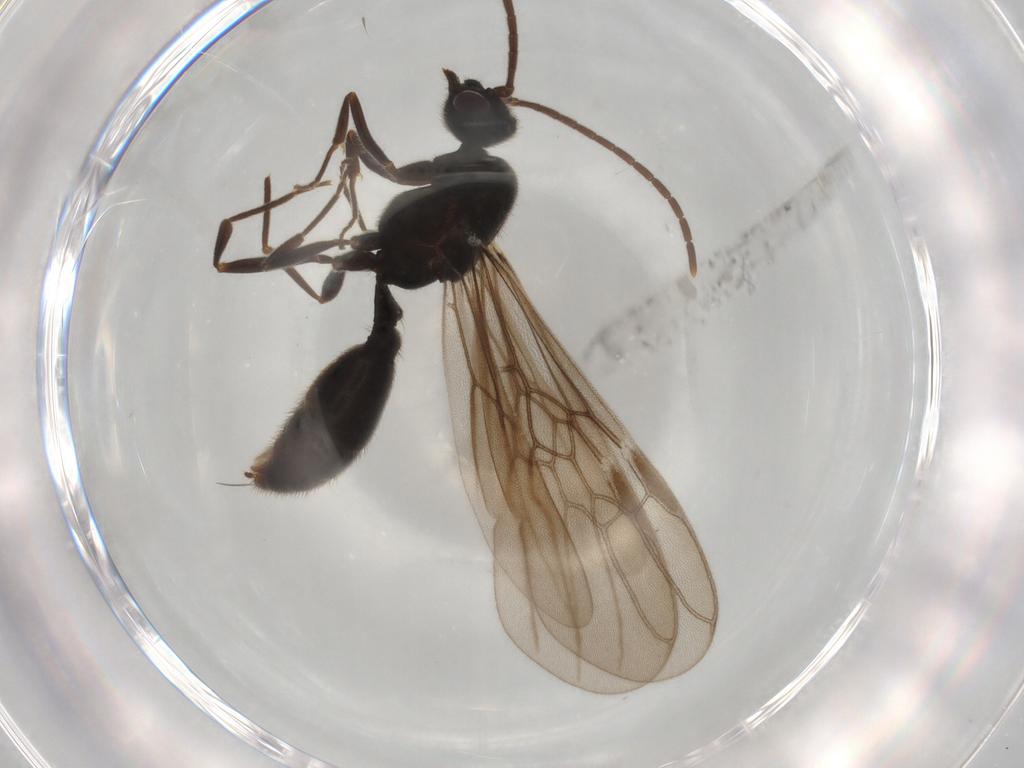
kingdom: Animalia
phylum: Arthropoda
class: Insecta
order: Hymenoptera
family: Formicidae
